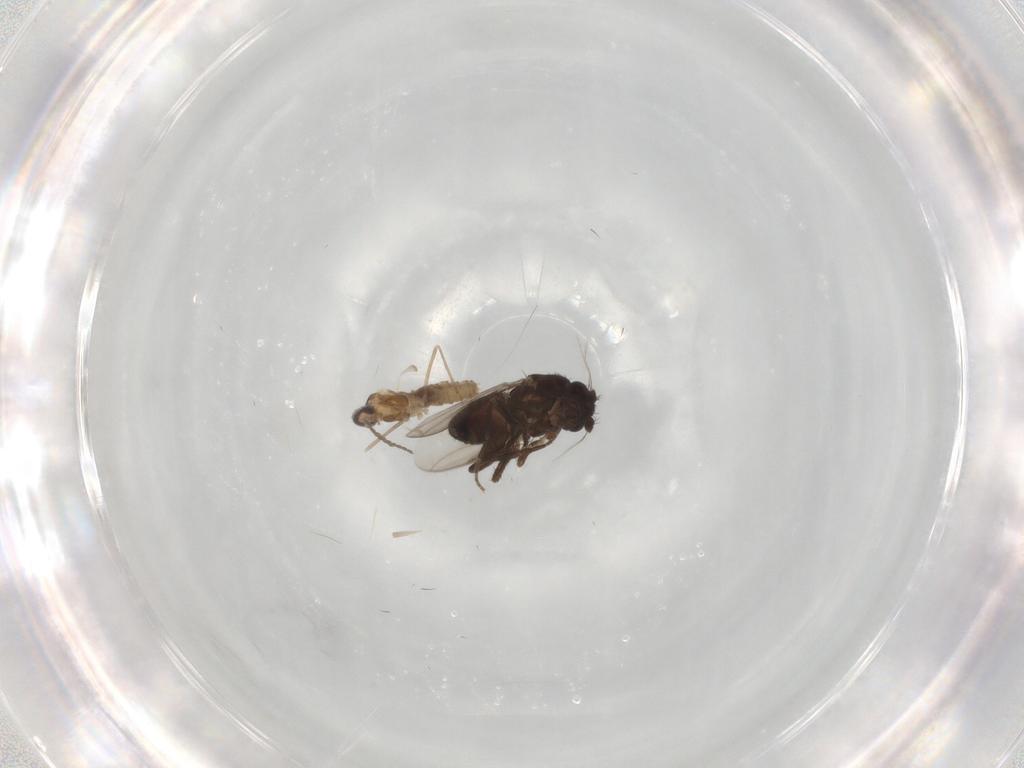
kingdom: Animalia
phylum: Arthropoda
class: Insecta
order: Diptera
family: Sphaeroceridae
